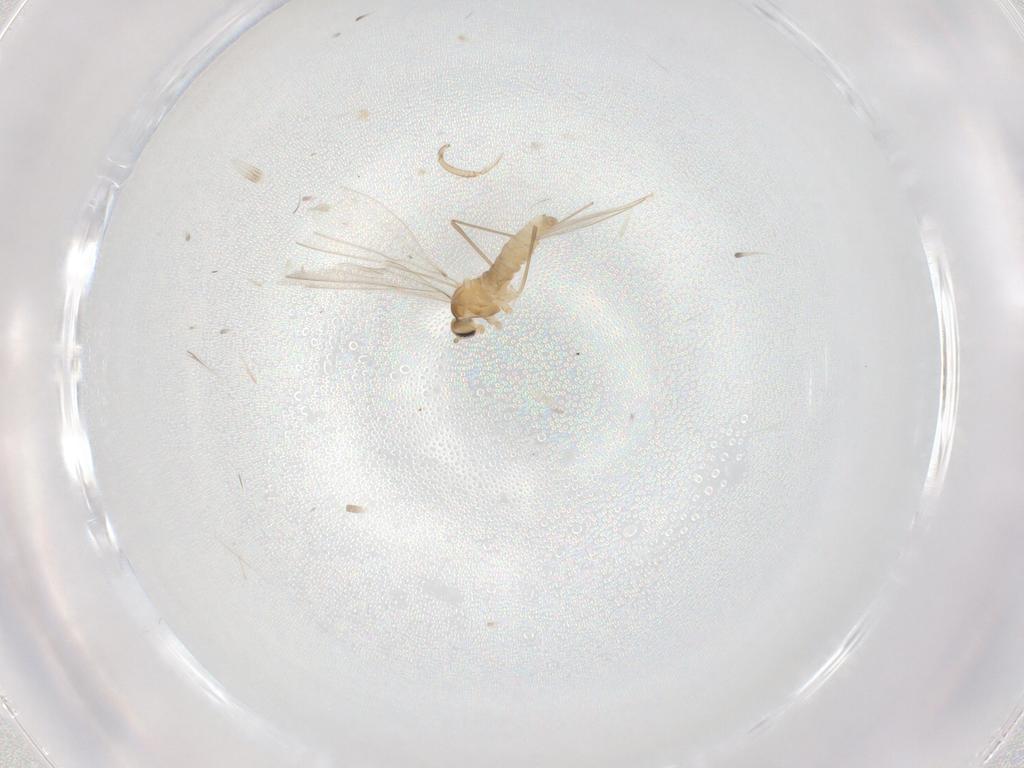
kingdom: Animalia
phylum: Arthropoda
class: Insecta
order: Diptera
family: Cecidomyiidae
